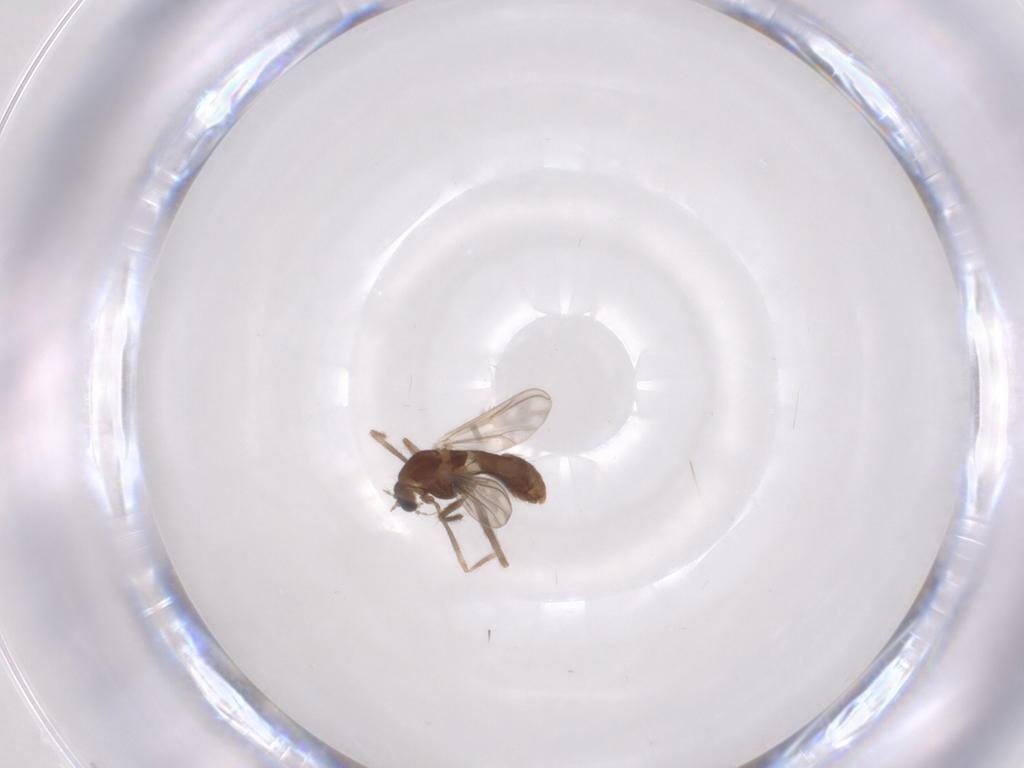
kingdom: Animalia
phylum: Arthropoda
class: Insecta
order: Diptera
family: Chironomidae
